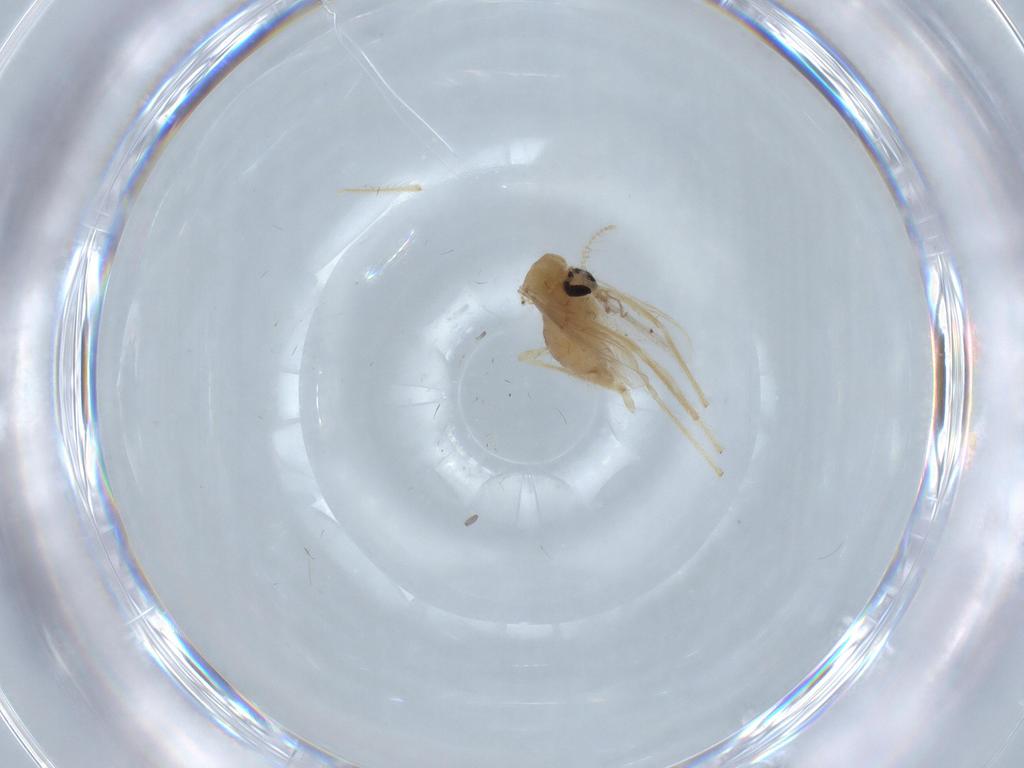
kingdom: Animalia
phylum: Arthropoda
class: Insecta
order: Diptera
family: Chironomidae
